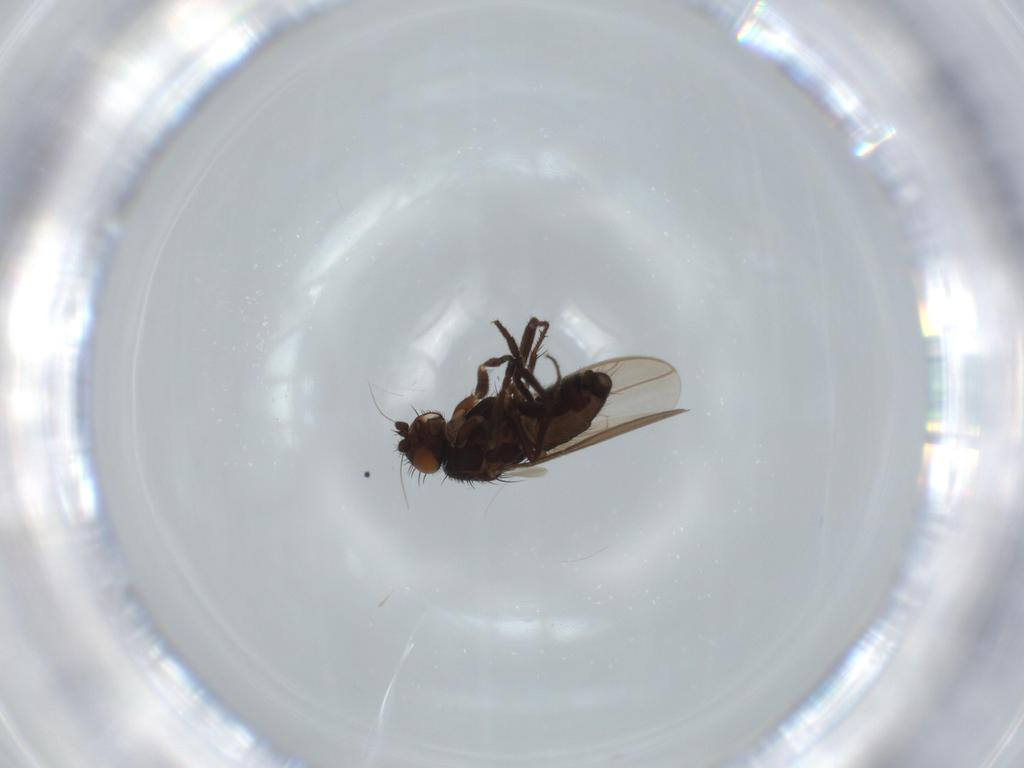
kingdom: Animalia
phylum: Arthropoda
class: Insecta
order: Diptera
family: Sphaeroceridae
